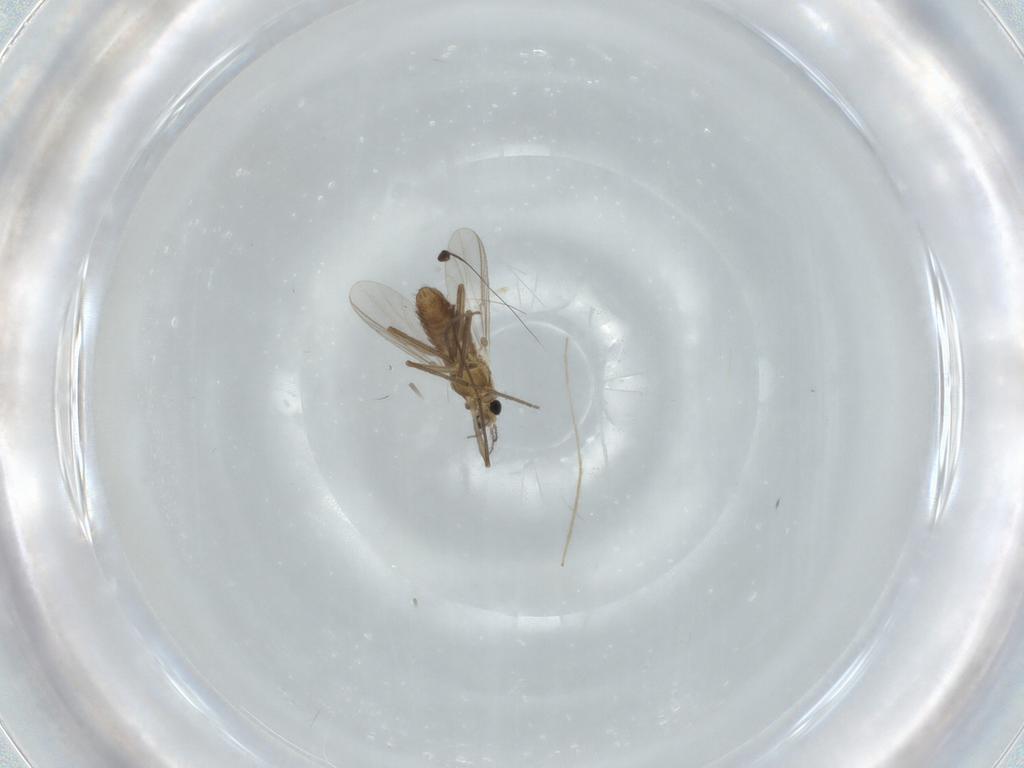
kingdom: Animalia
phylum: Arthropoda
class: Insecta
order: Diptera
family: Chironomidae
